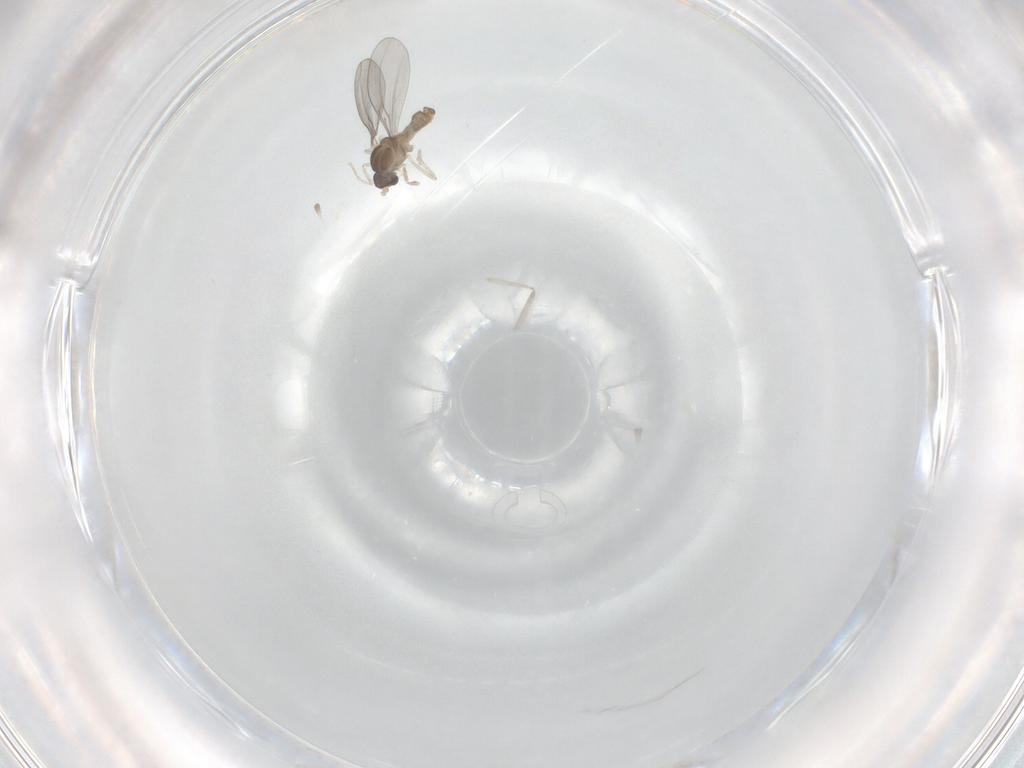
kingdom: Animalia
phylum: Arthropoda
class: Insecta
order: Diptera
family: Cecidomyiidae
